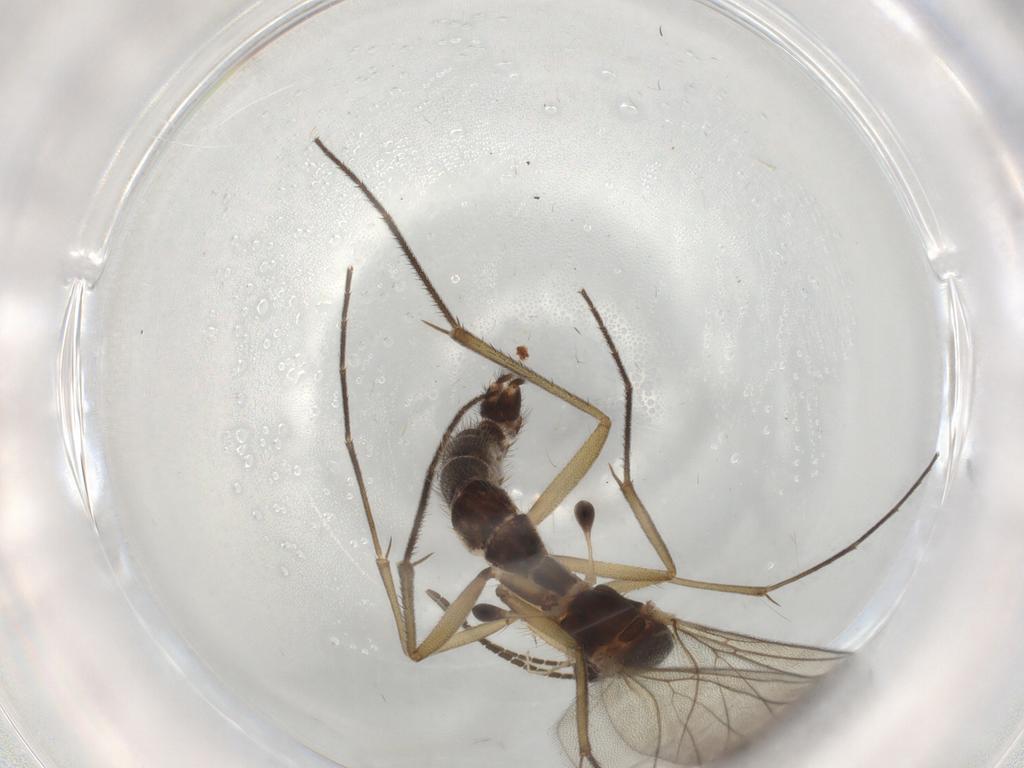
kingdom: Animalia
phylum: Arthropoda
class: Insecta
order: Diptera
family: Sciaridae
